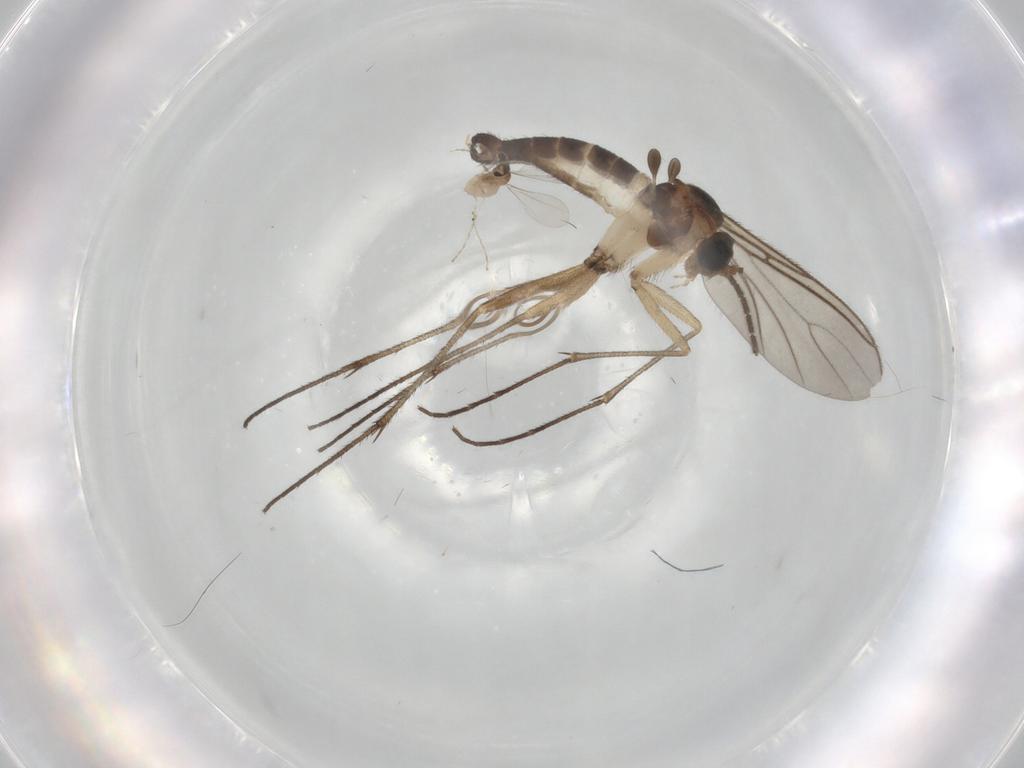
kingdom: Animalia
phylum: Arthropoda
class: Insecta
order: Diptera
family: Cecidomyiidae
